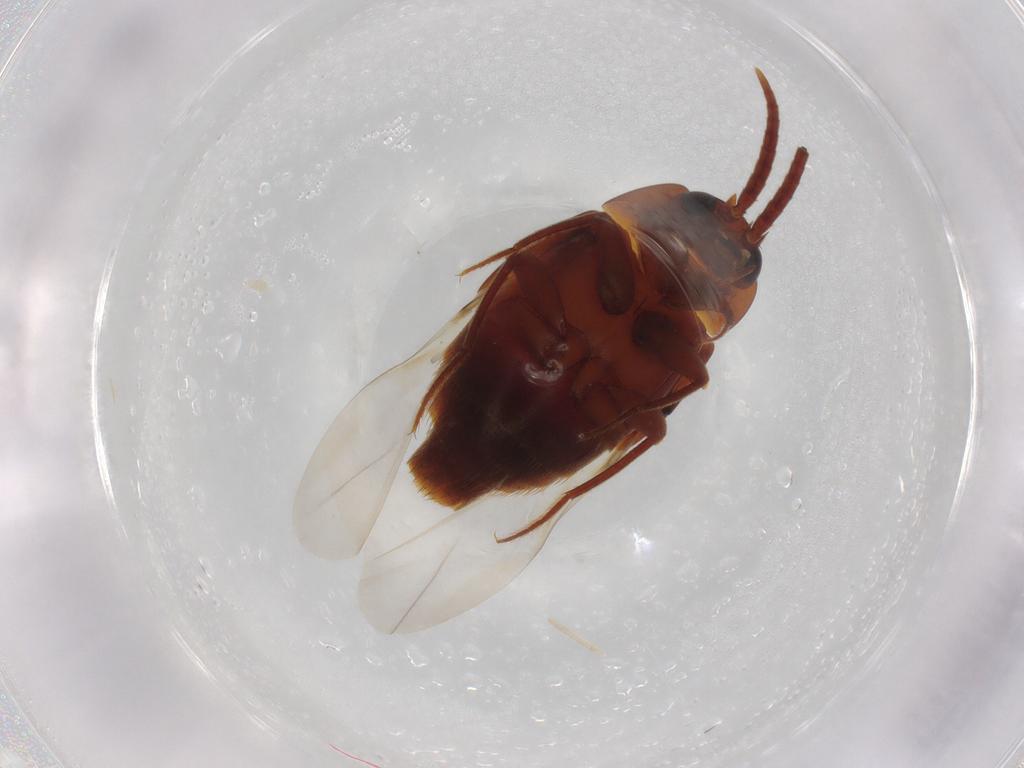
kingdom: Animalia
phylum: Arthropoda
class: Insecta
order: Coleoptera
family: Staphylinidae
